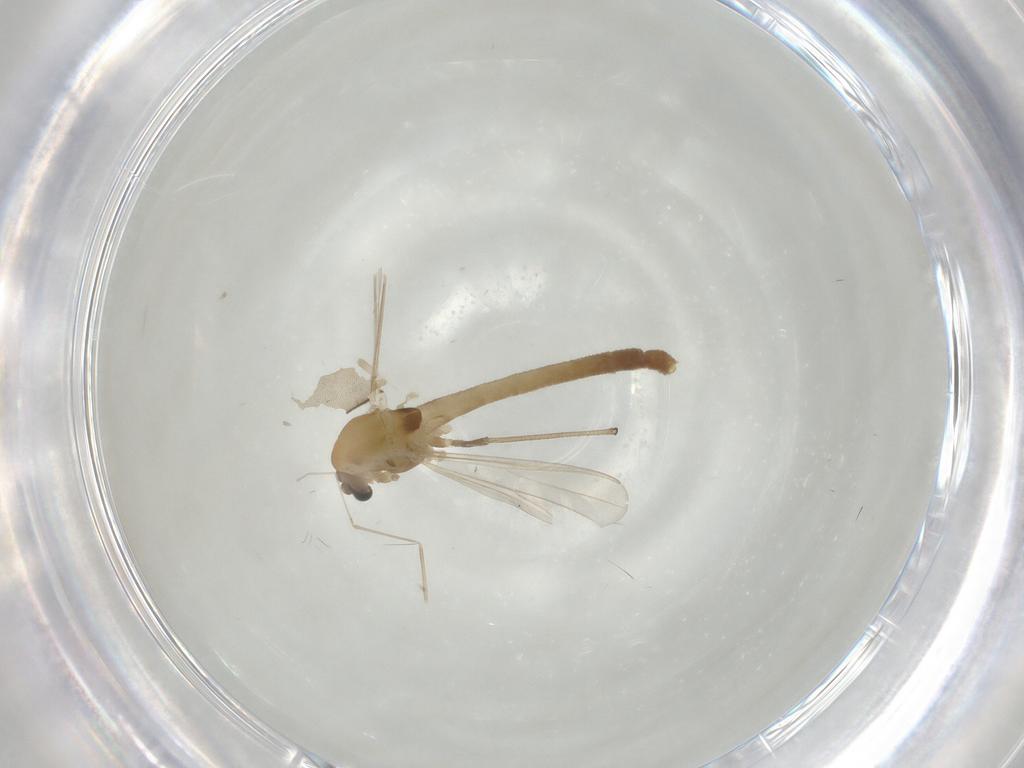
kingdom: Animalia
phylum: Arthropoda
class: Insecta
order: Diptera
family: Chironomidae
